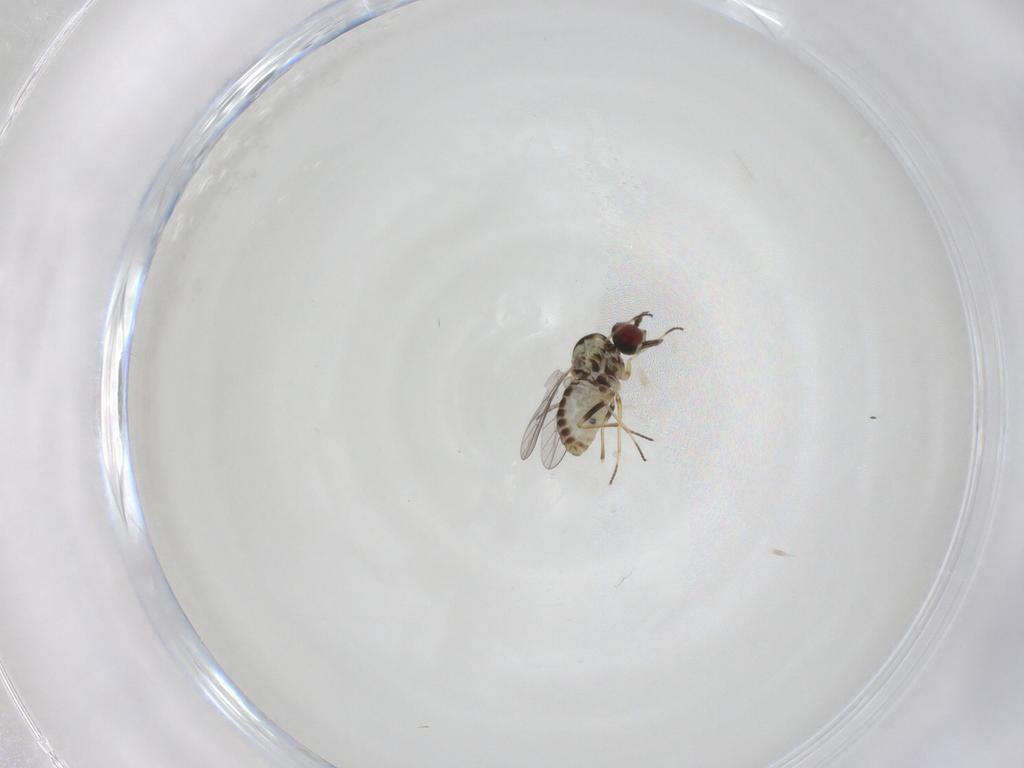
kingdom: Animalia
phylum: Arthropoda
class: Insecta
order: Diptera
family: Mythicomyiidae
